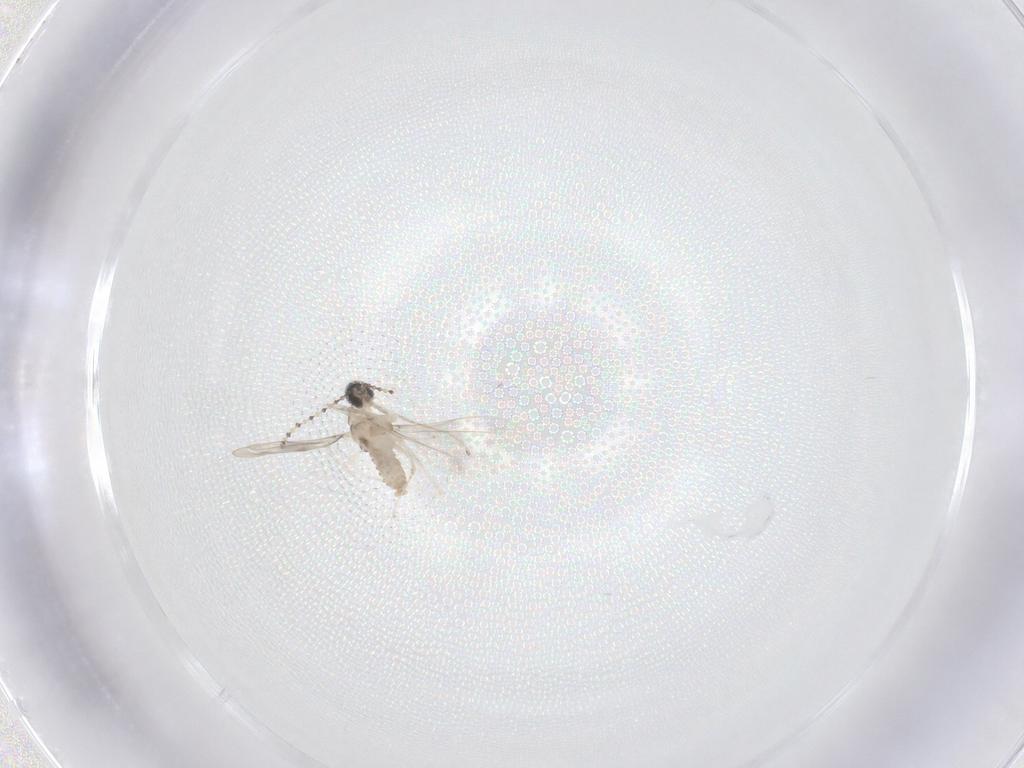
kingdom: Animalia
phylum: Arthropoda
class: Insecta
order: Diptera
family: Cecidomyiidae
